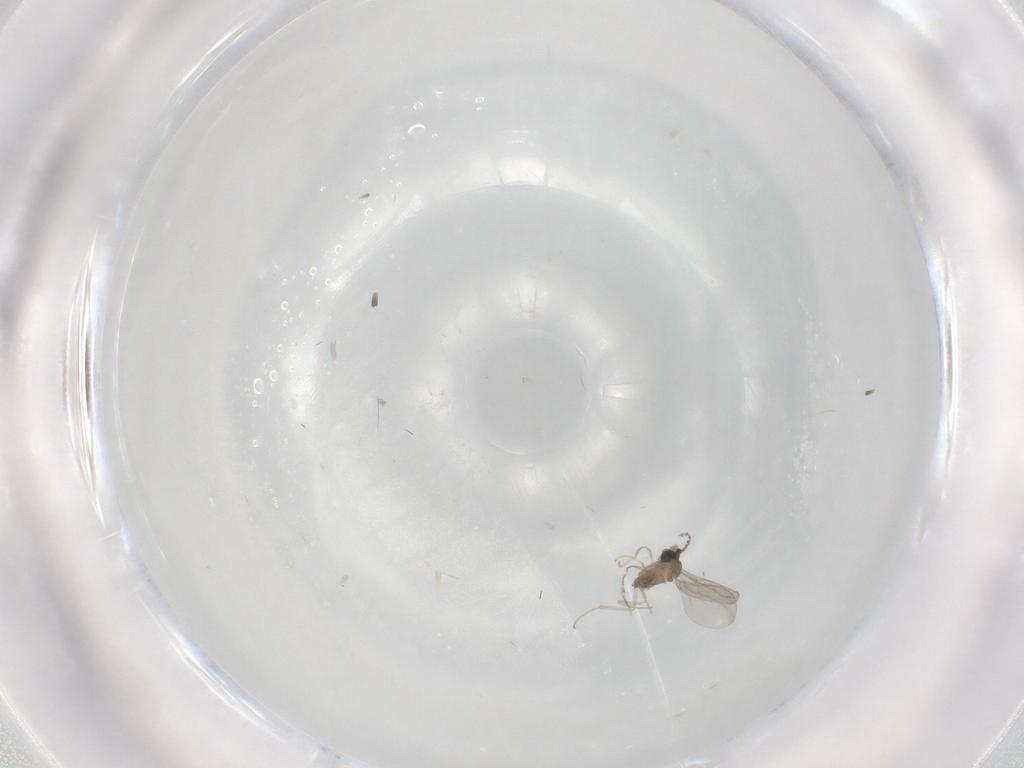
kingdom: Animalia
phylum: Arthropoda
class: Insecta
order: Diptera
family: Cecidomyiidae
